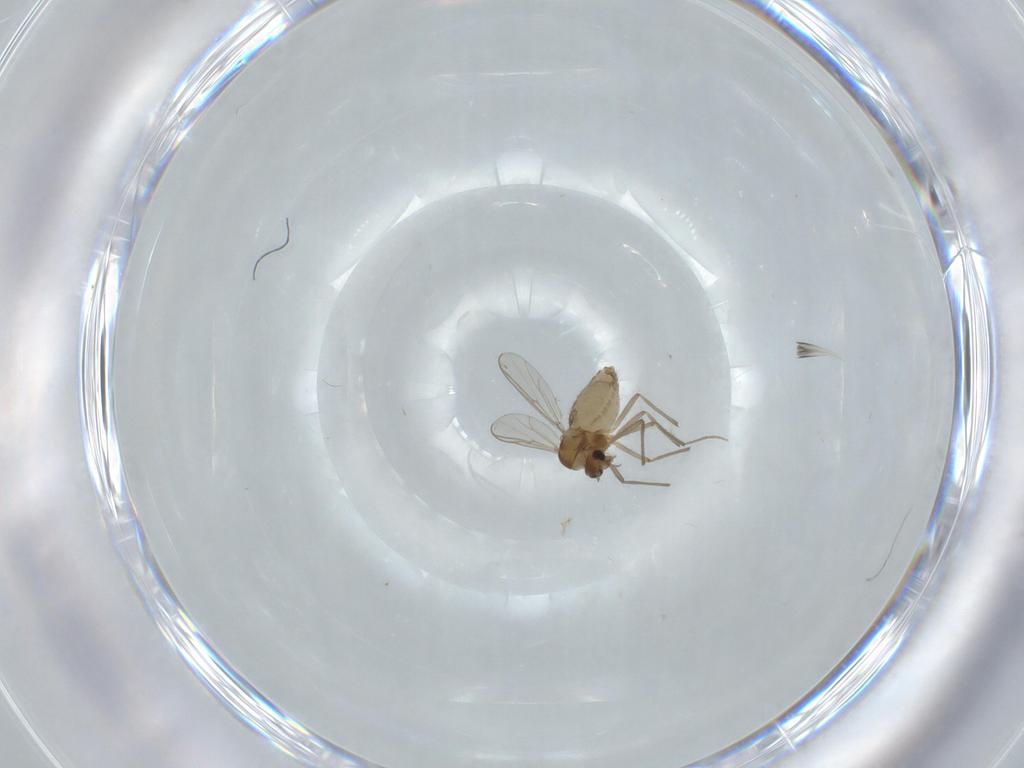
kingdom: Animalia
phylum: Arthropoda
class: Insecta
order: Diptera
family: Chironomidae
